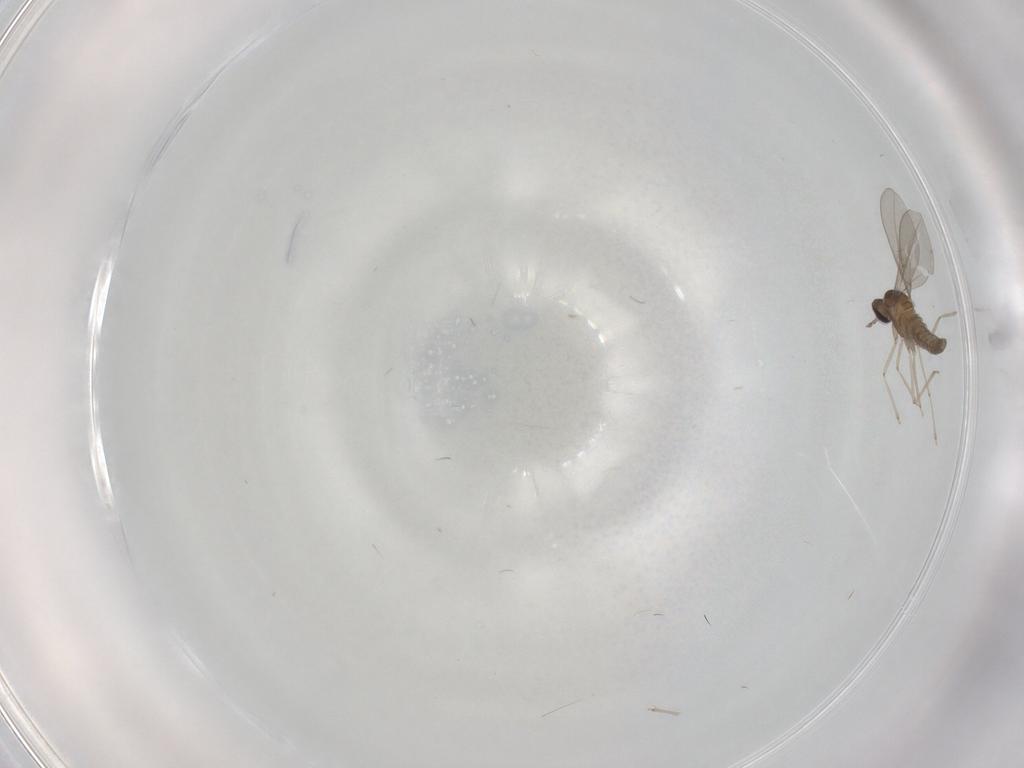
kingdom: Animalia
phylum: Arthropoda
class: Insecta
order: Diptera
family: Cecidomyiidae
